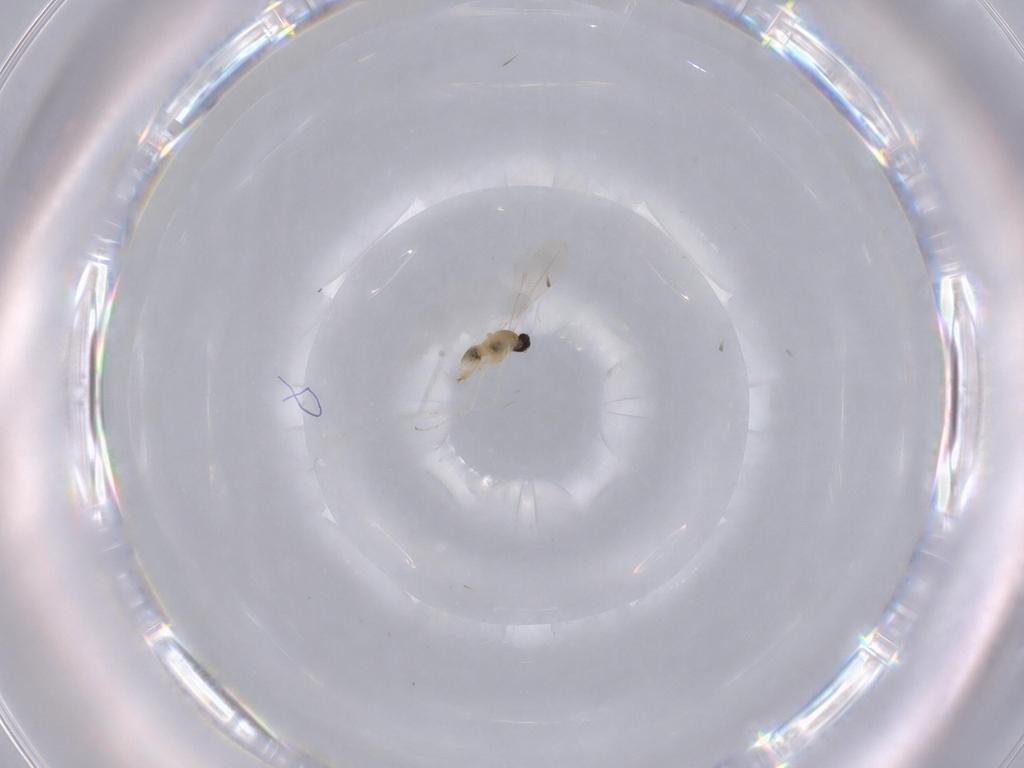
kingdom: Animalia
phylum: Arthropoda
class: Insecta
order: Diptera
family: Cecidomyiidae
